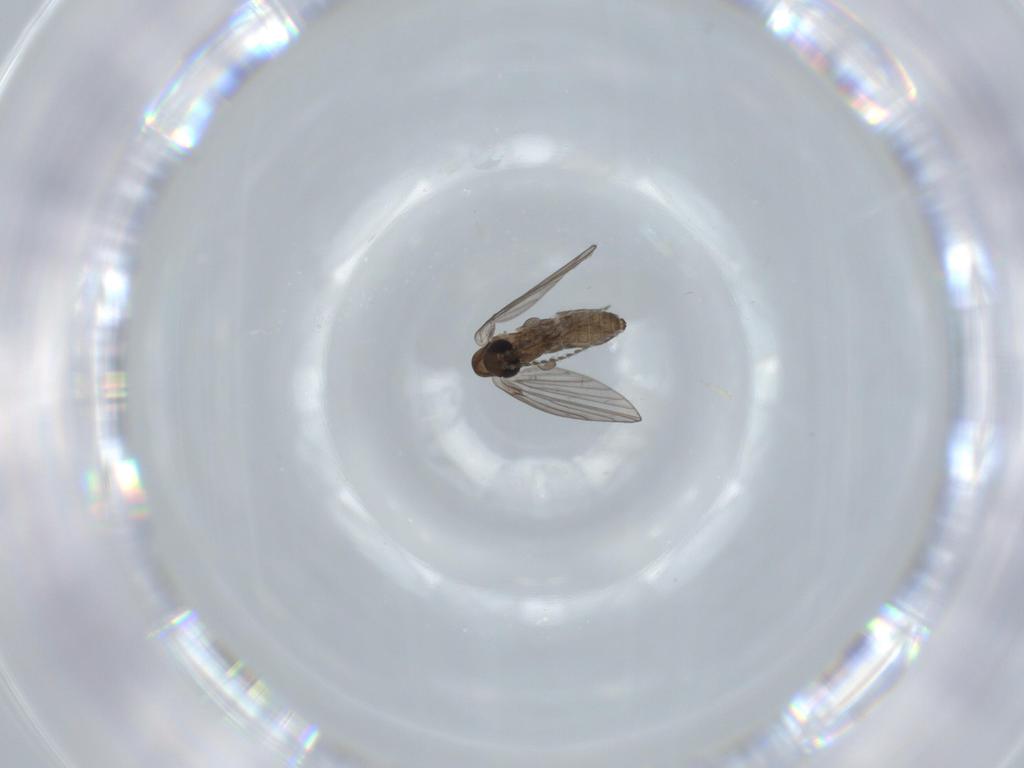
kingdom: Animalia
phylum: Arthropoda
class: Insecta
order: Diptera
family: Psychodidae
